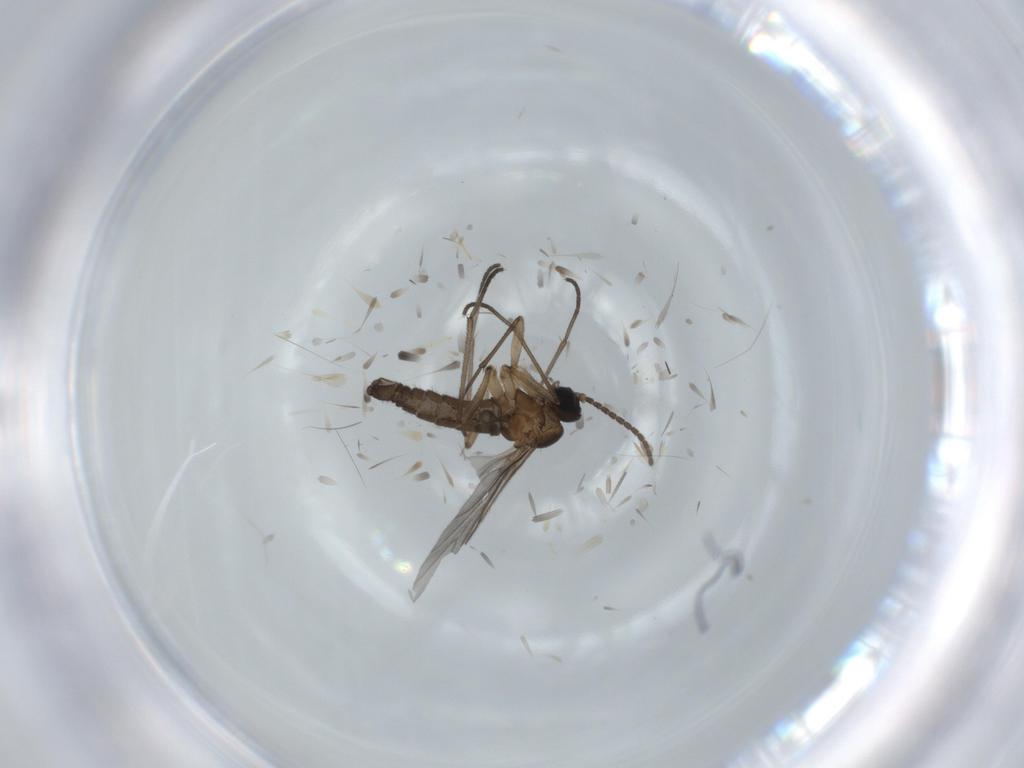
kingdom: Animalia
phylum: Arthropoda
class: Insecta
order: Diptera
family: Sciaridae
